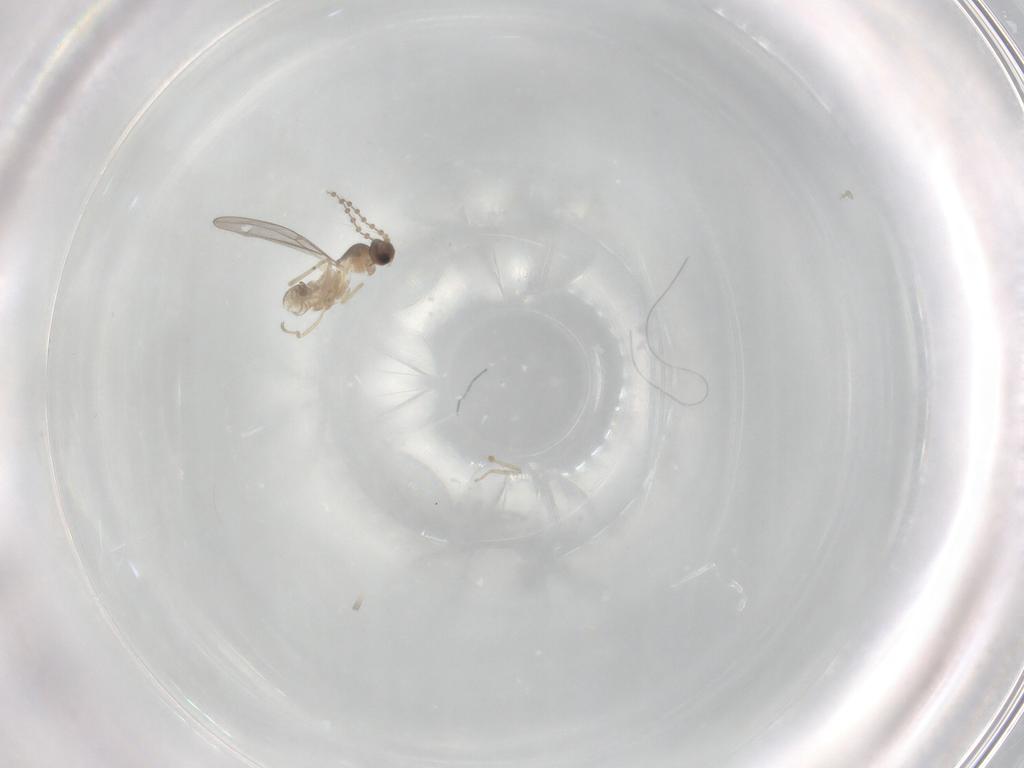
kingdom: Animalia
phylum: Arthropoda
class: Insecta
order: Diptera
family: Cecidomyiidae
